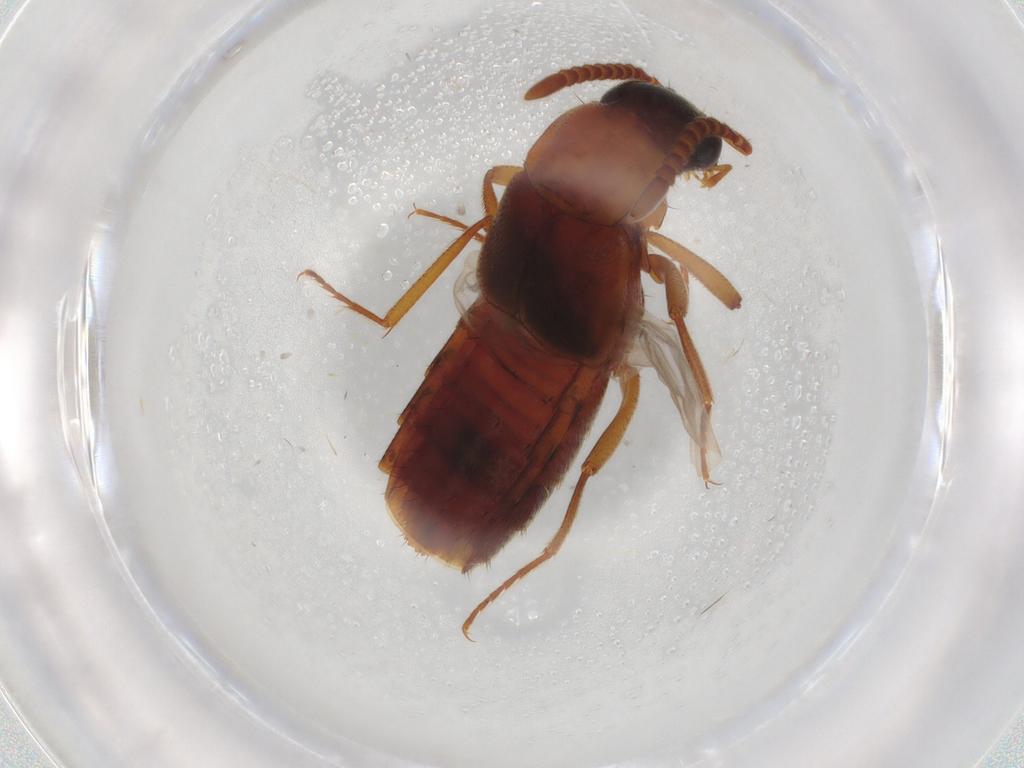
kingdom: Animalia
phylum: Arthropoda
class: Insecta
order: Coleoptera
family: Staphylinidae
